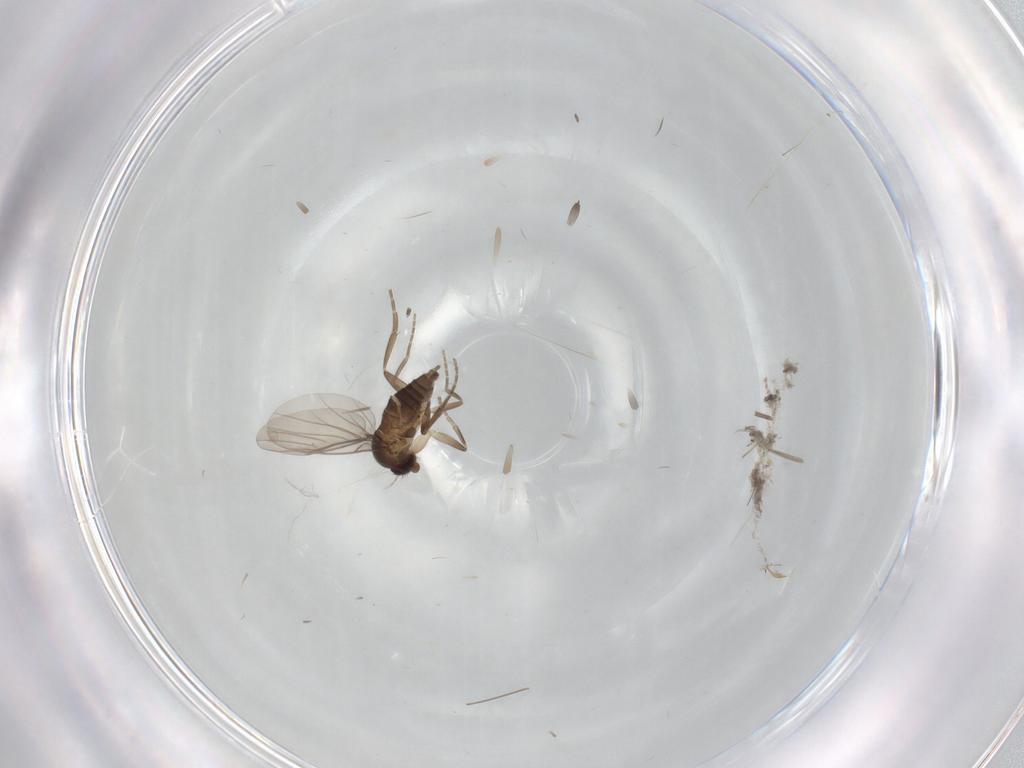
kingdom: Animalia
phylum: Arthropoda
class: Insecta
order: Diptera
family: Phoridae
